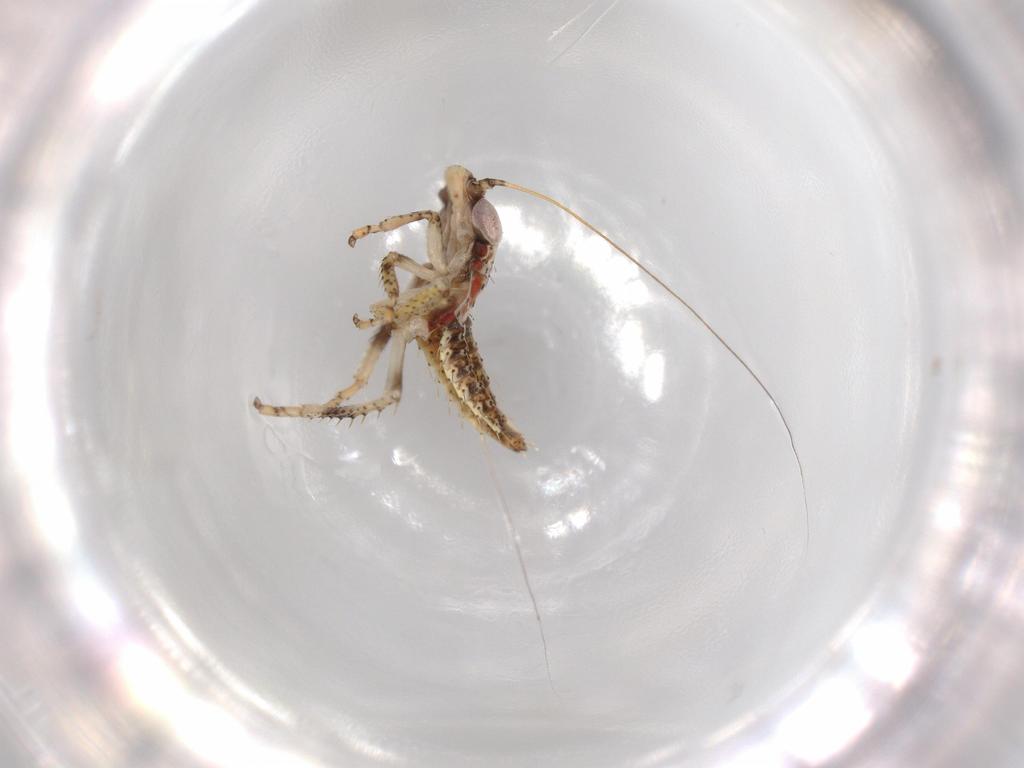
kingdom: Animalia
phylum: Arthropoda
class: Insecta
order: Hemiptera
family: Cicadellidae
